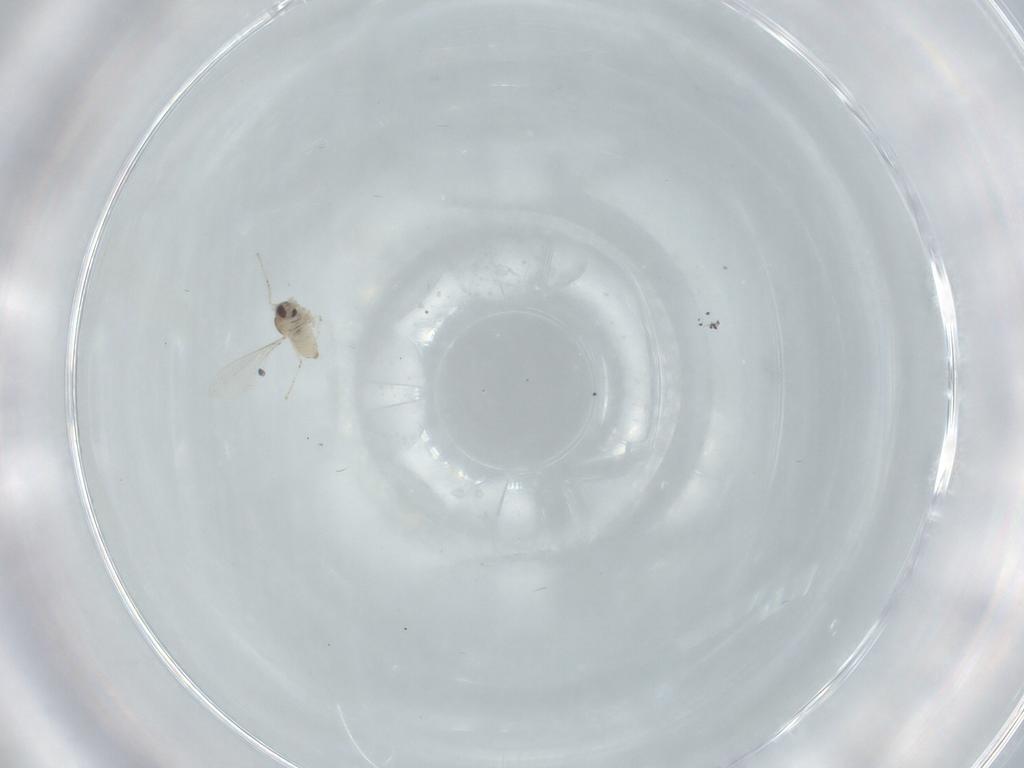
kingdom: Animalia
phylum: Arthropoda
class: Insecta
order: Diptera
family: Cecidomyiidae
